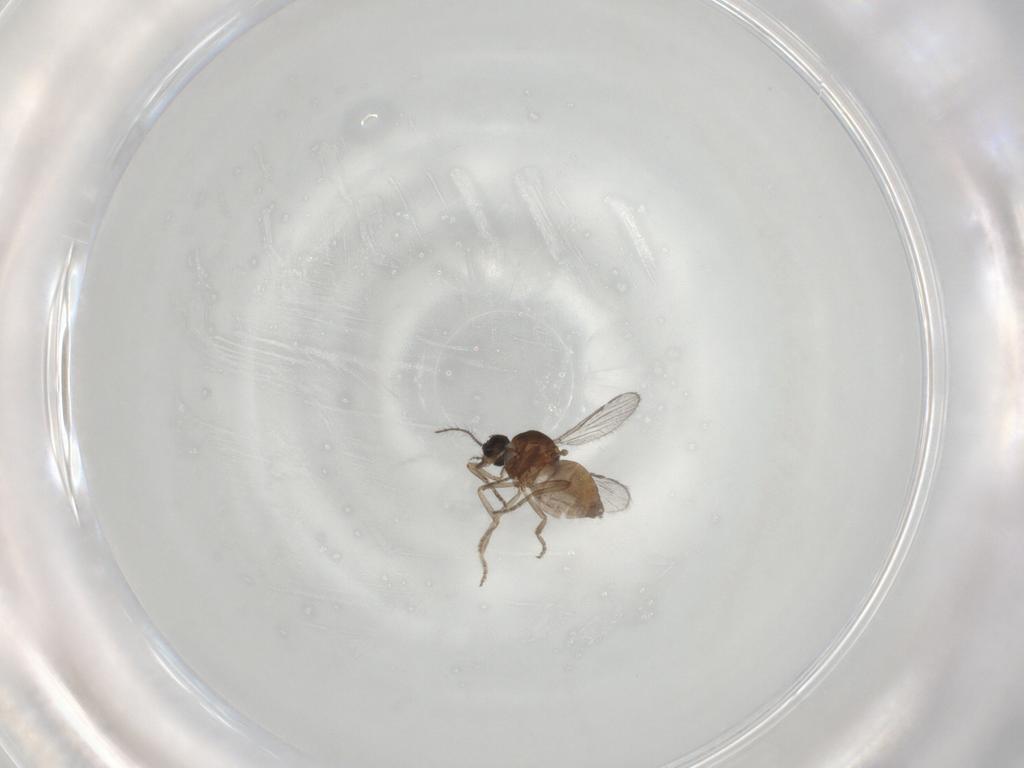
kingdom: Animalia
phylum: Arthropoda
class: Insecta
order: Diptera
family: Ceratopogonidae
